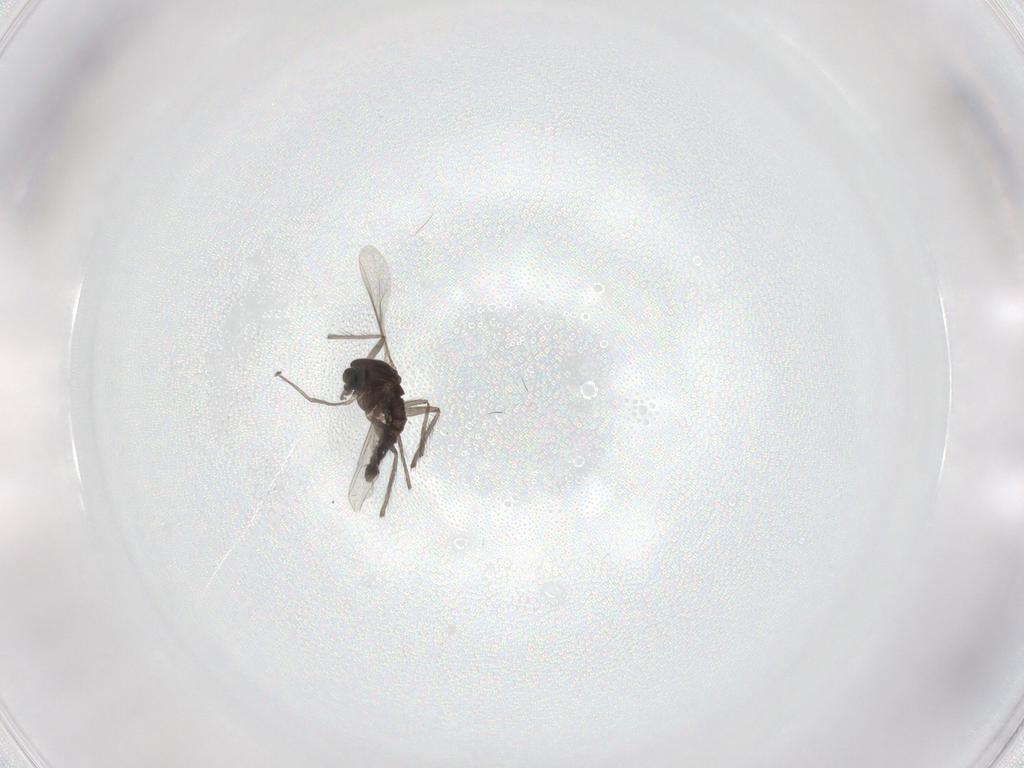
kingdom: Animalia
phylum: Arthropoda
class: Insecta
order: Diptera
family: Chironomidae
